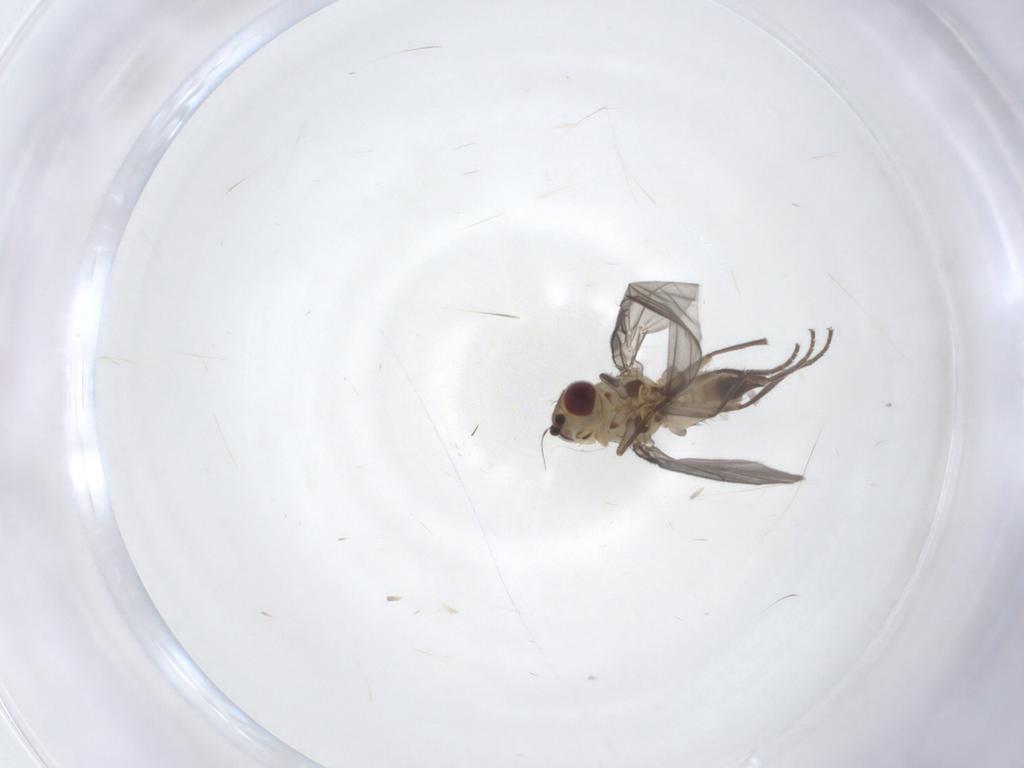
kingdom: Animalia
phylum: Arthropoda
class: Insecta
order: Diptera
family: Agromyzidae
